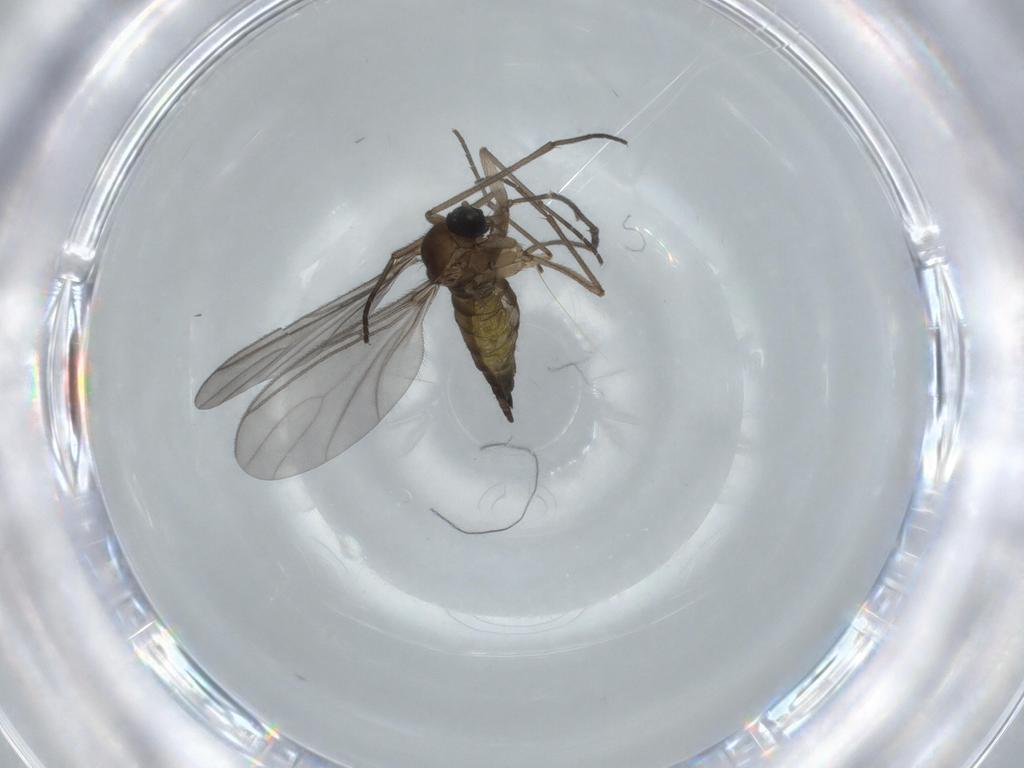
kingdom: Animalia
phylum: Arthropoda
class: Insecta
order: Diptera
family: Sciaridae
